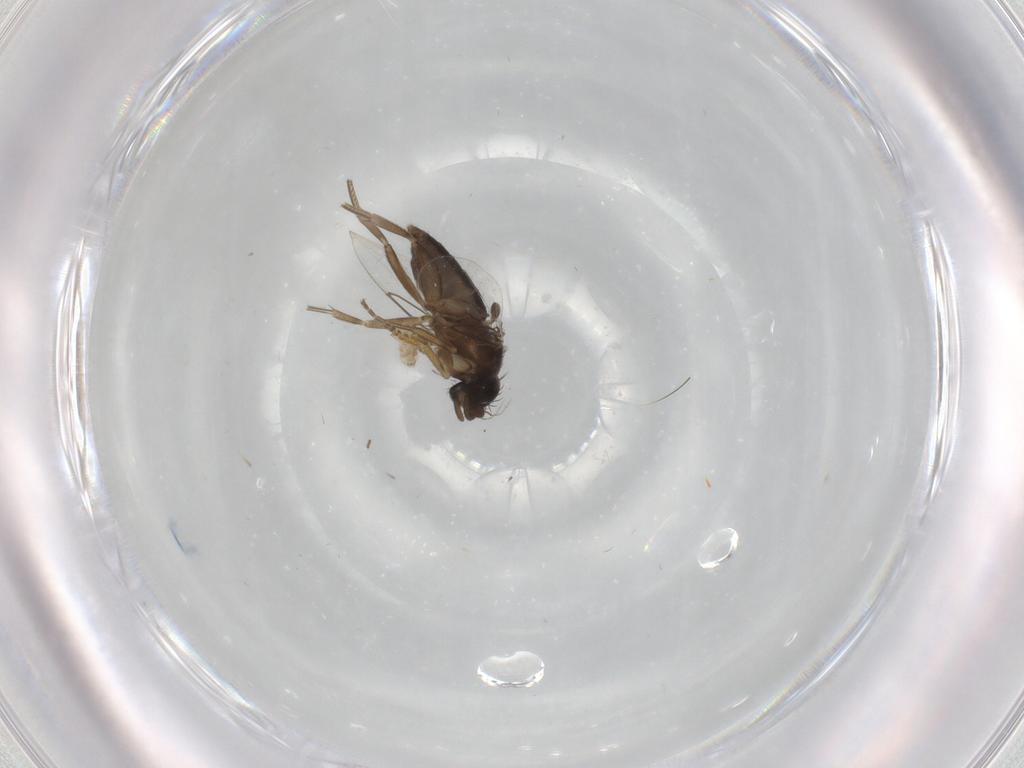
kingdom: Animalia
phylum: Arthropoda
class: Insecta
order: Diptera
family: Phoridae
